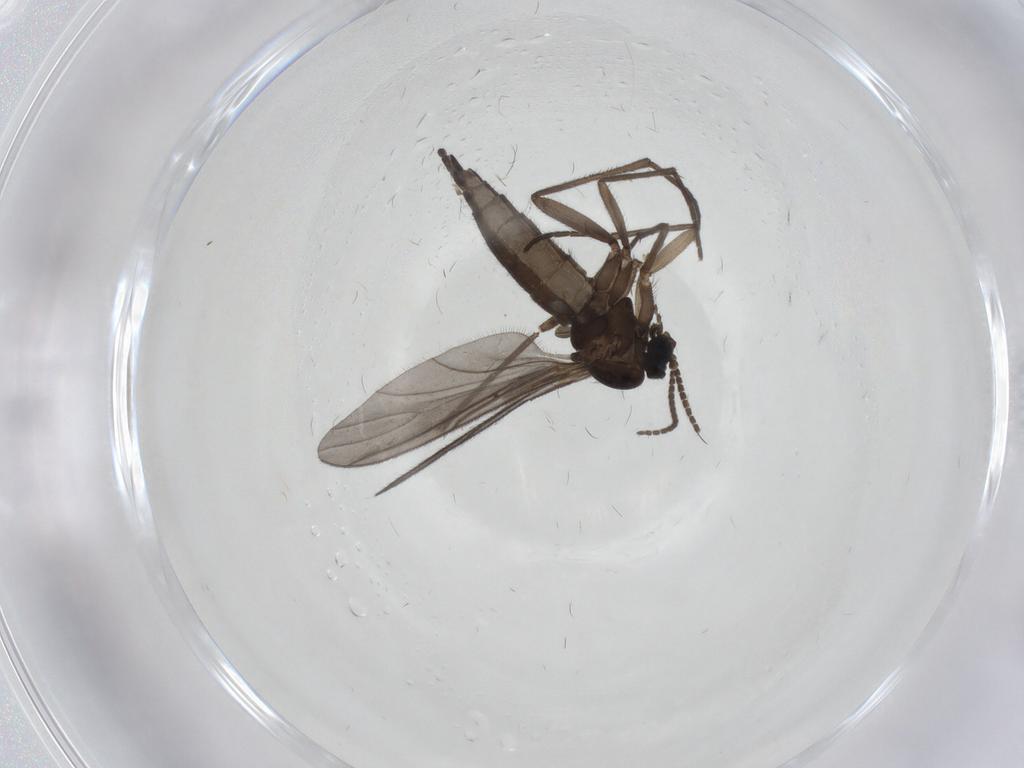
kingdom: Animalia
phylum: Arthropoda
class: Insecta
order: Diptera
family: Sciaridae
